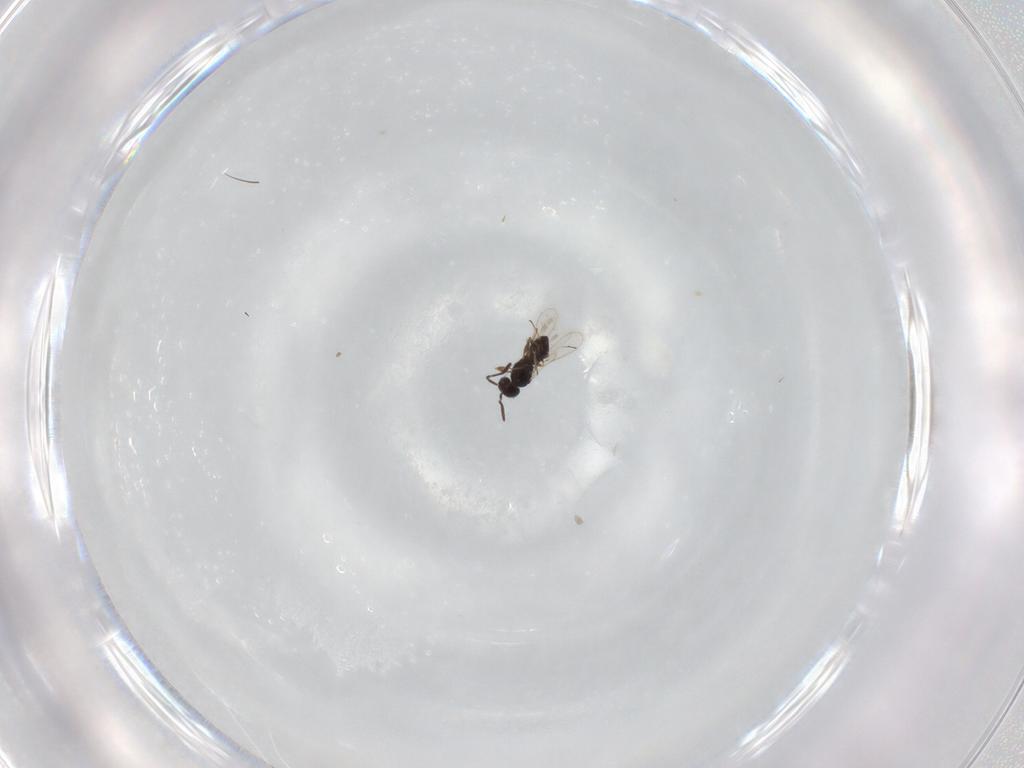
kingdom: Animalia
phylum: Arthropoda
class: Insecta
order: Hymenoptera
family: Scelionidae
